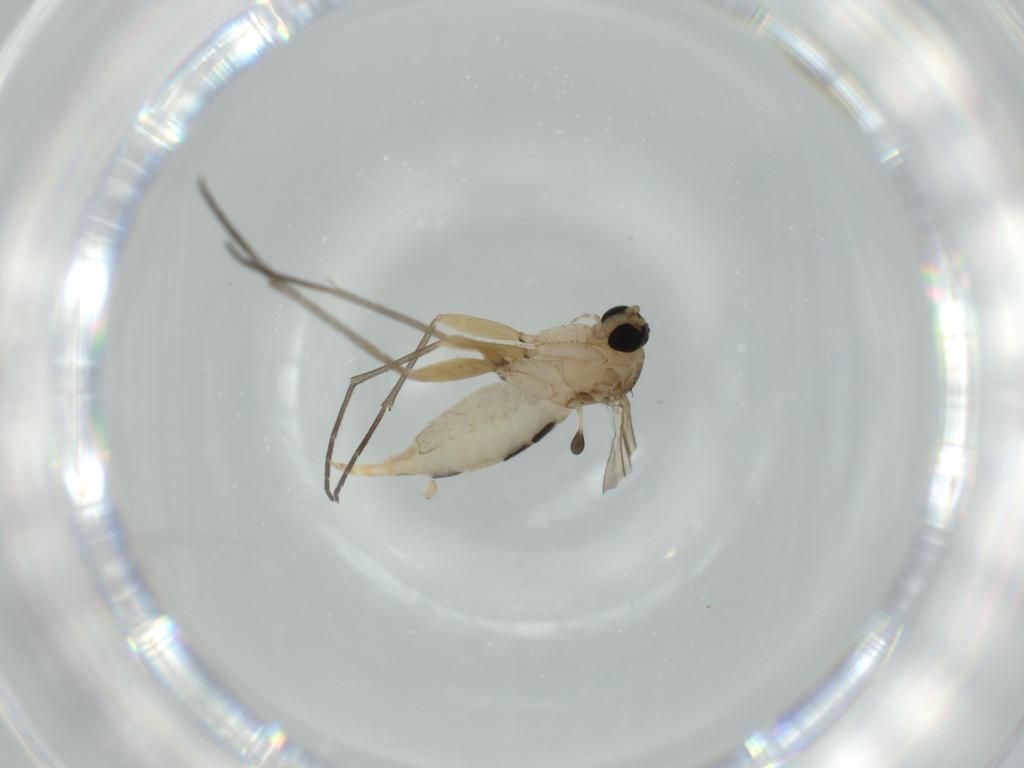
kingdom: Animalia
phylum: Arthropoda
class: Insecta
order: Diptera
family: Sciaridae
